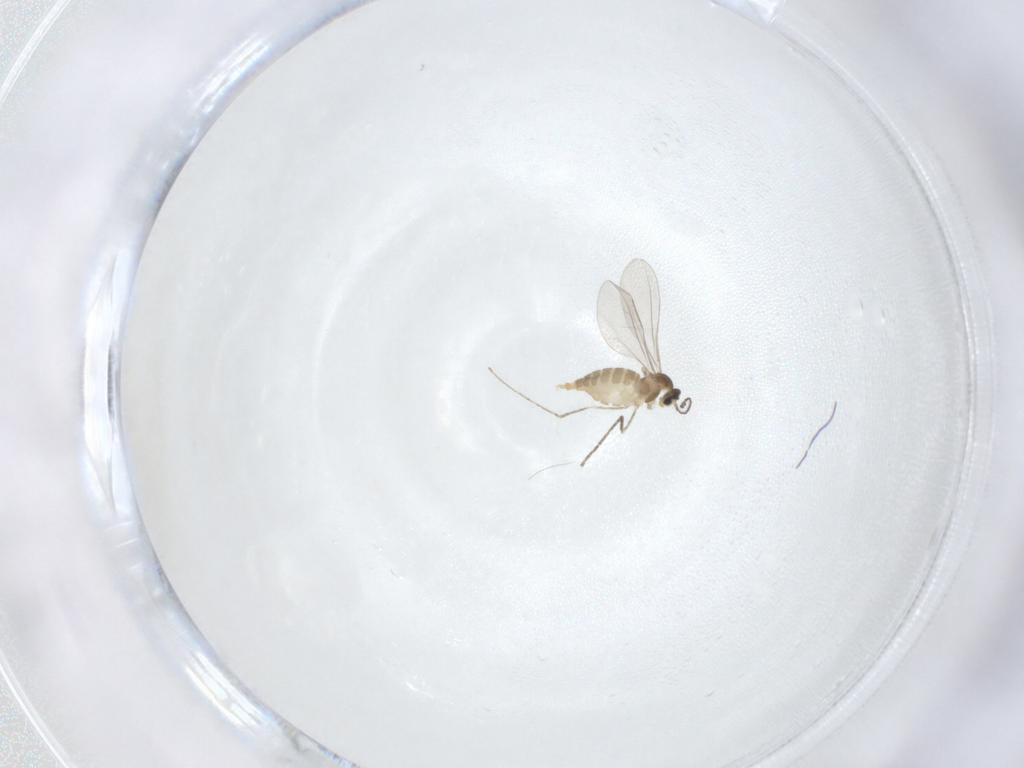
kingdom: Animalia
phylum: Arthropoda
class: Insecta
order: Diptera
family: Cecidomyiidae
